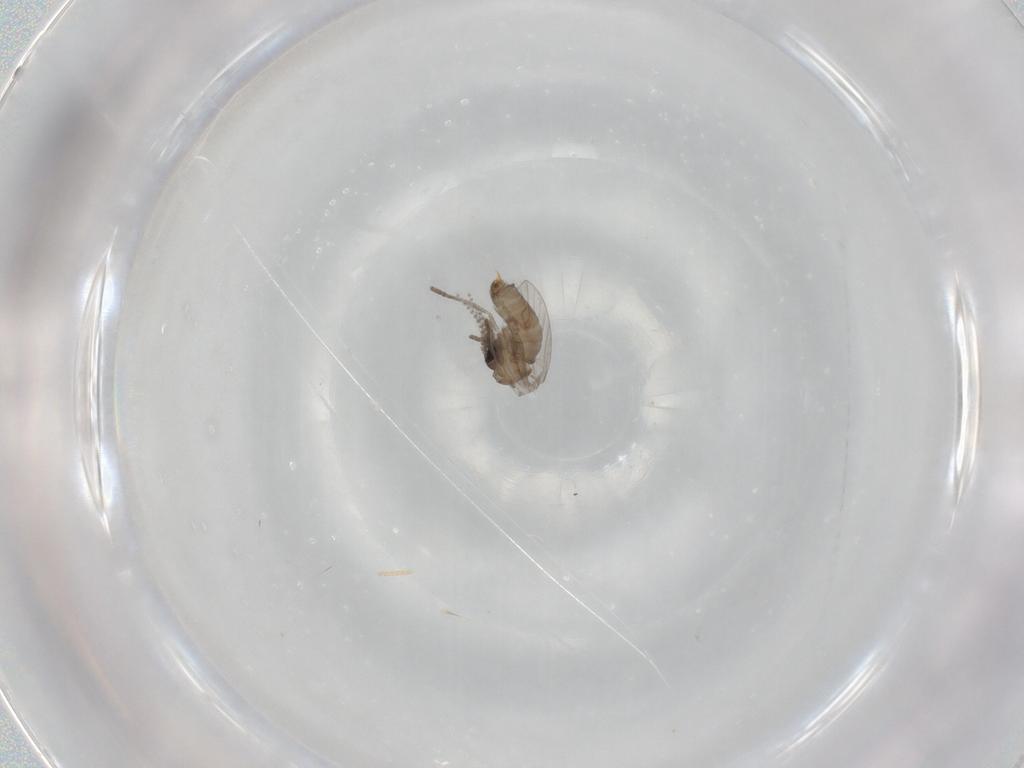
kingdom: Animalia
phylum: Arthropoda
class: Insecta
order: Diptera
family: Psychodidae
